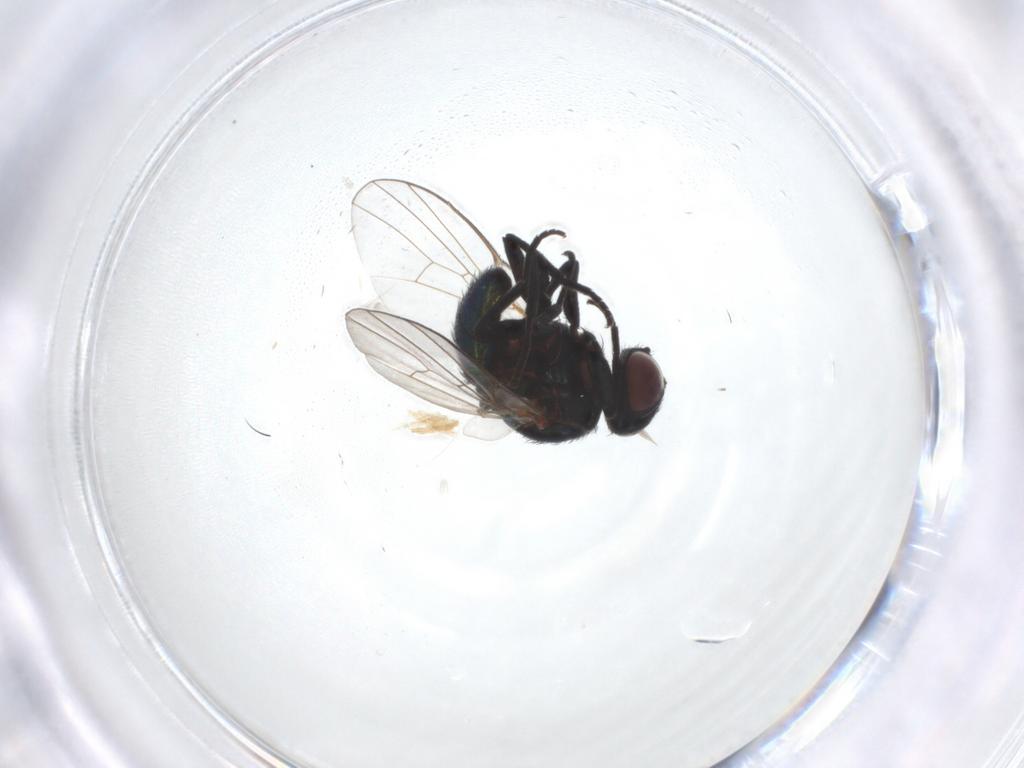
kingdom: Animalia
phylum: Arthropoda
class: Insecta
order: Diptera
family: Agromyzidae
